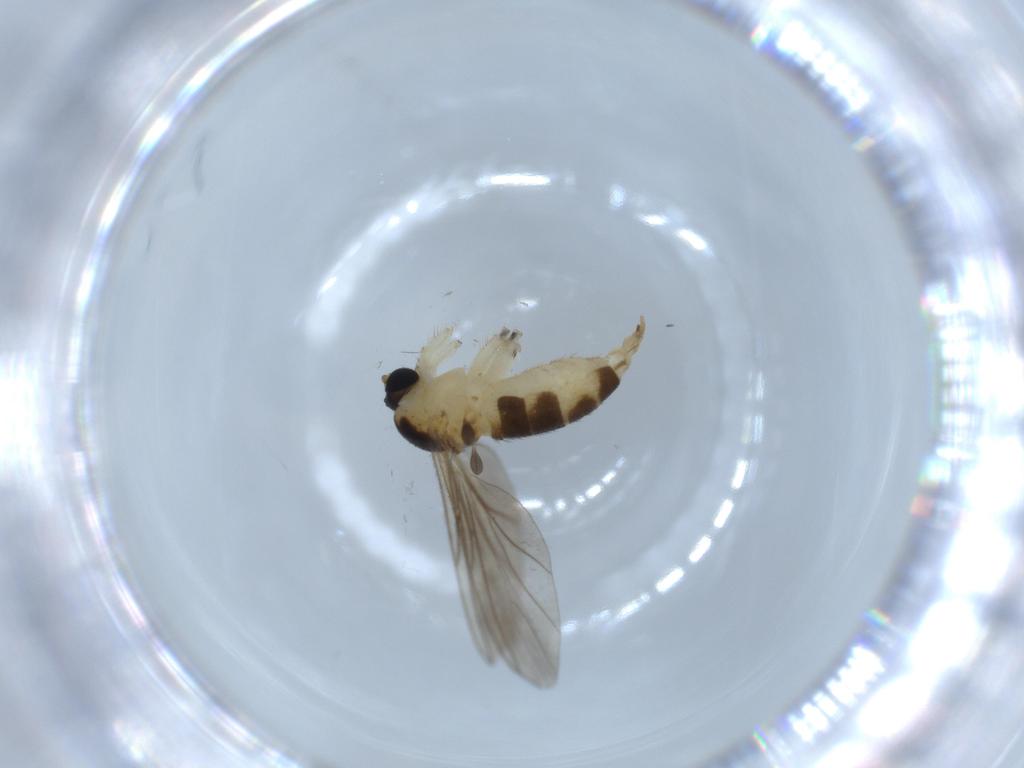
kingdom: Animalia
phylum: Arthropoda
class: Insecta
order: Diptera
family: Sciaridae
